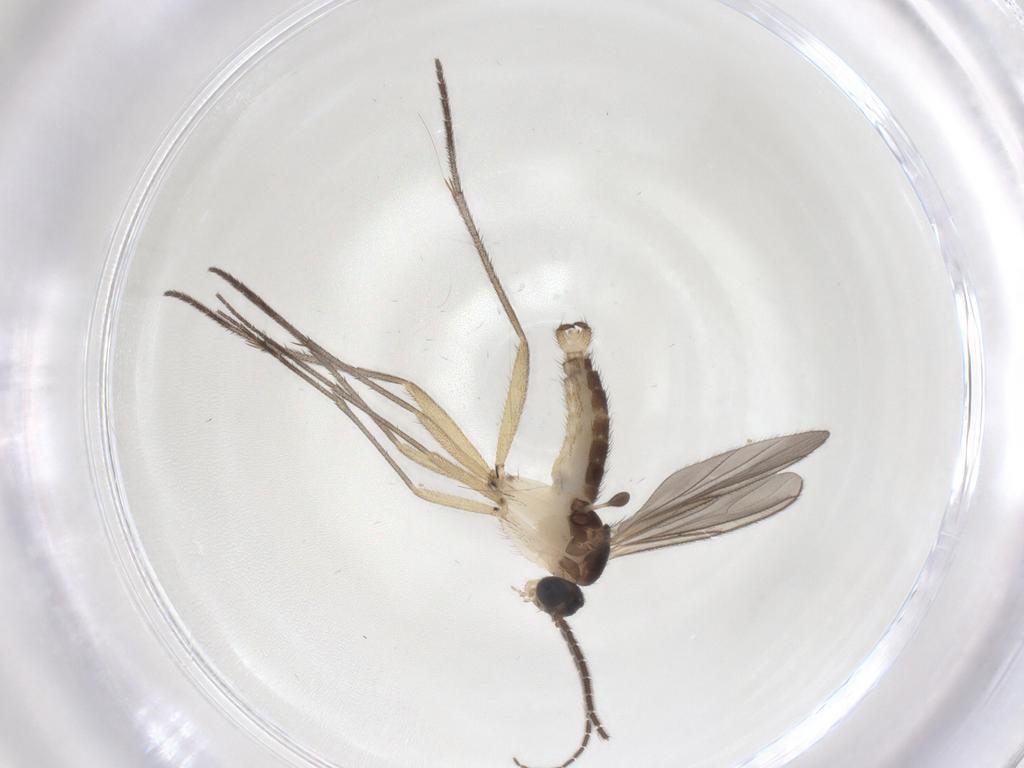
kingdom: Animalia
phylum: Arthropoda
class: Insecta
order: Diptera
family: Sciaridae
